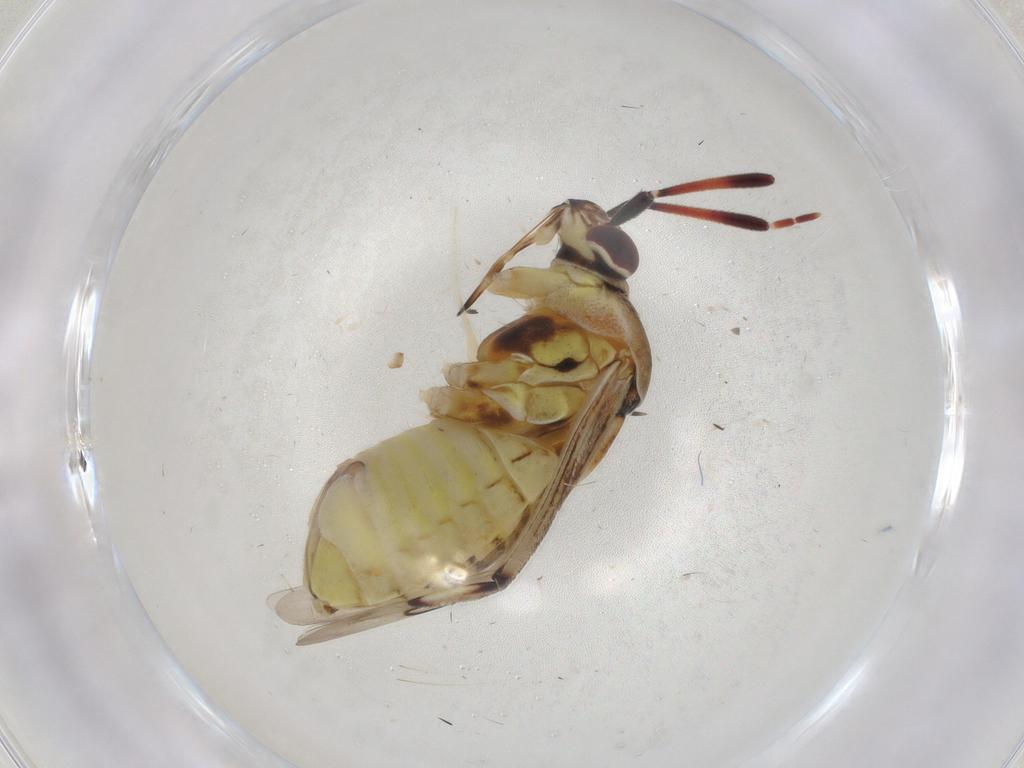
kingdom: Animalia
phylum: Arthropoda
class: Insecta
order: Hemiptera
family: Miridae
